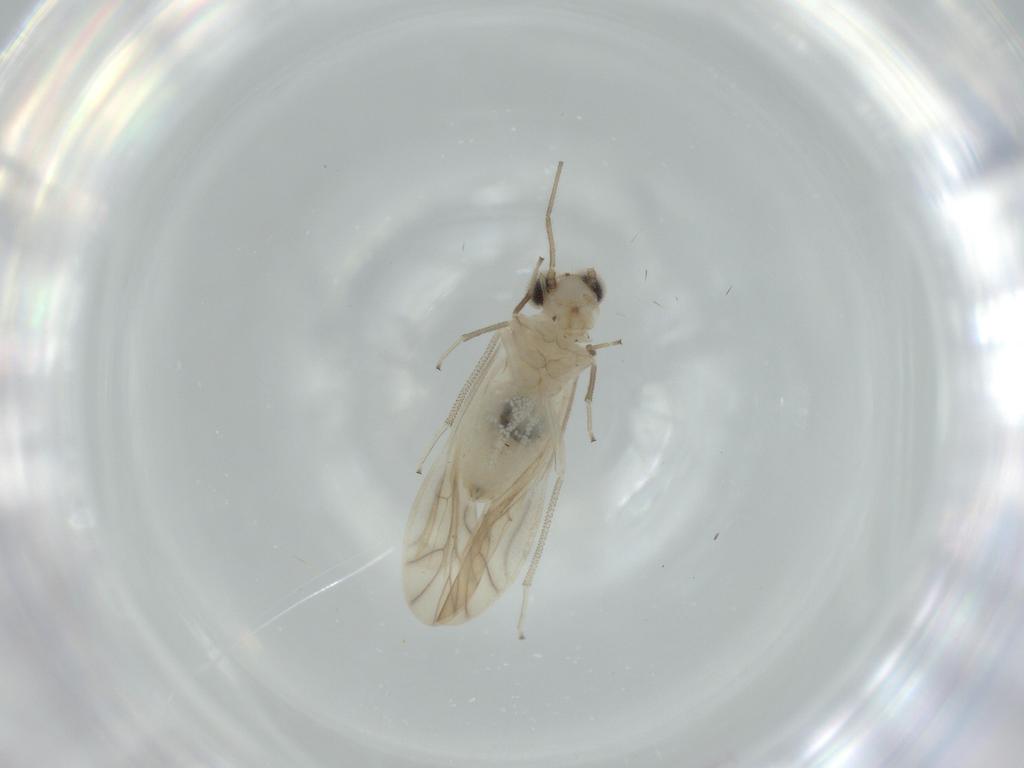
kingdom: Animalia
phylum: Arthropoda
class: Insecta
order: Psocodea
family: Caeciliusidae
